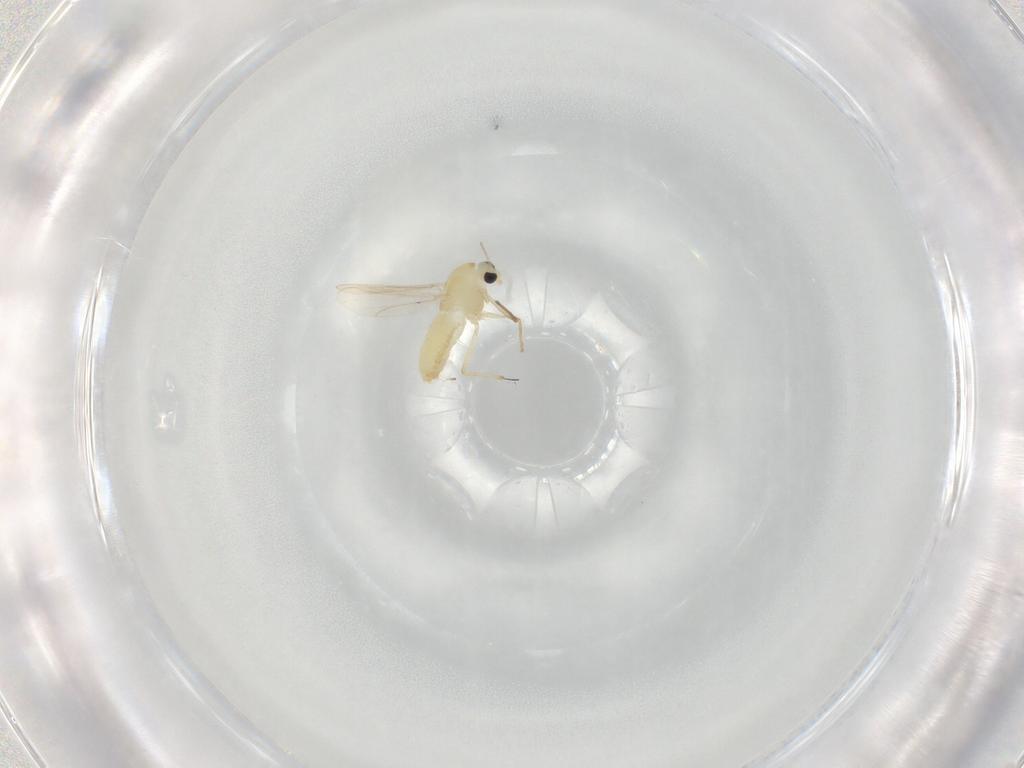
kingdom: Animalia
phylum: Arthropoda
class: Insecta
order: Diptera
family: Chironomidae
